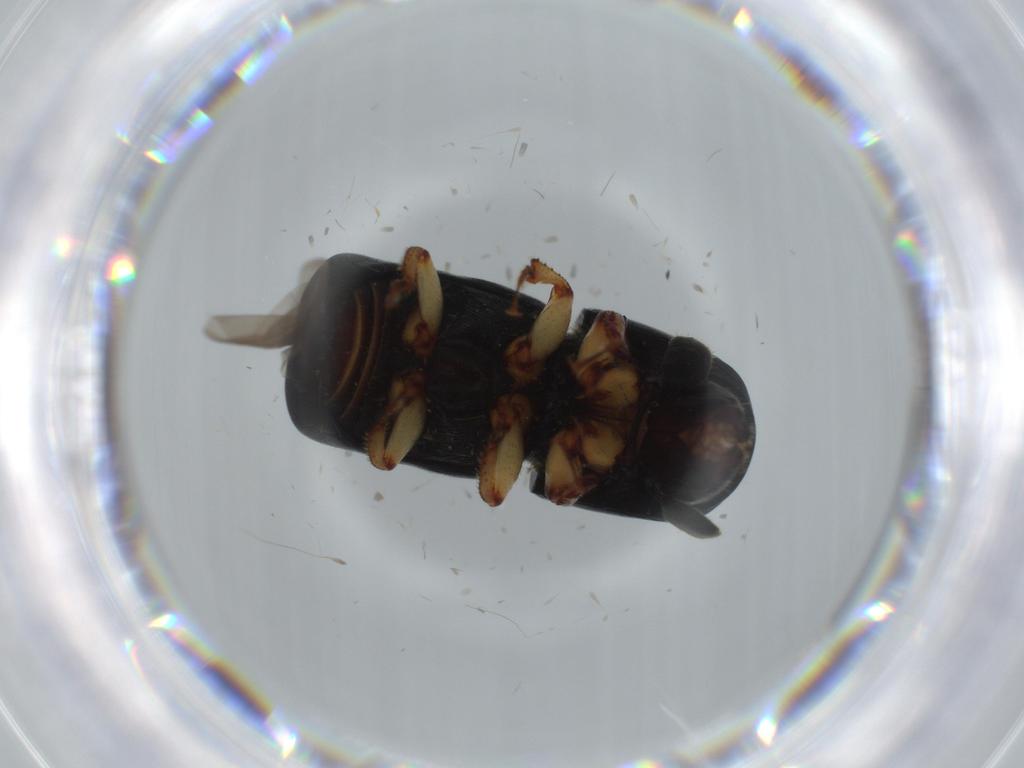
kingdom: Animalia
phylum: Arthropoda
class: Insecta
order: Coleoptera
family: Curculionidae
